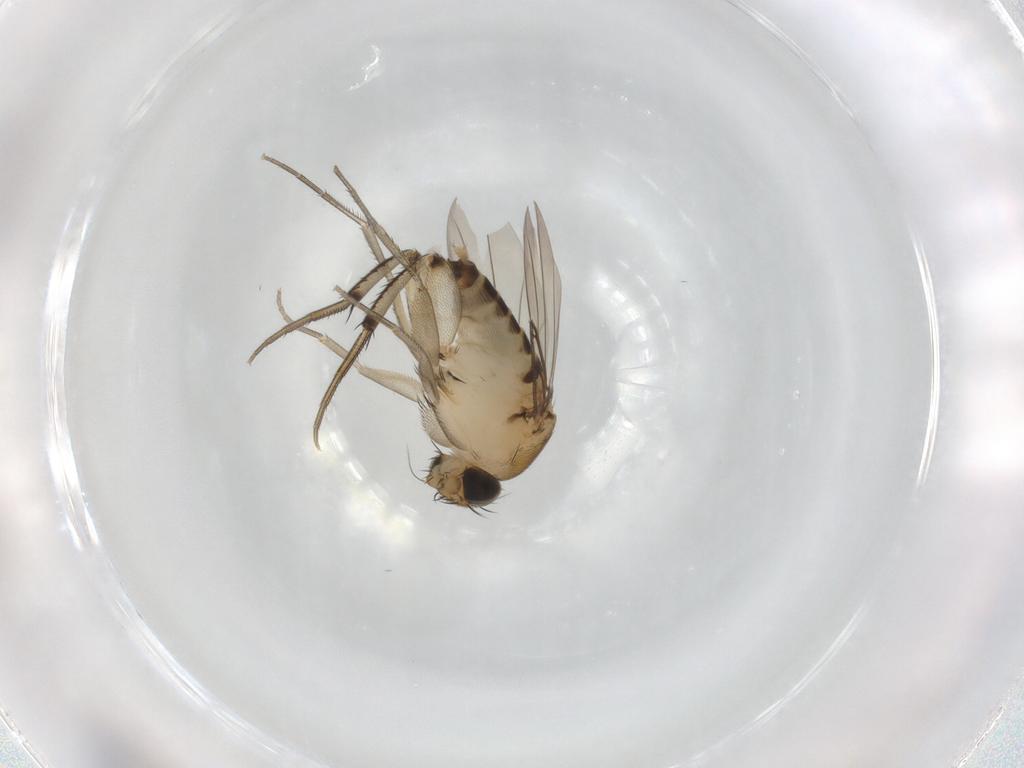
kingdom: Animalia
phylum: Arthropoda
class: Insecta
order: Diptera
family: Phoridae
